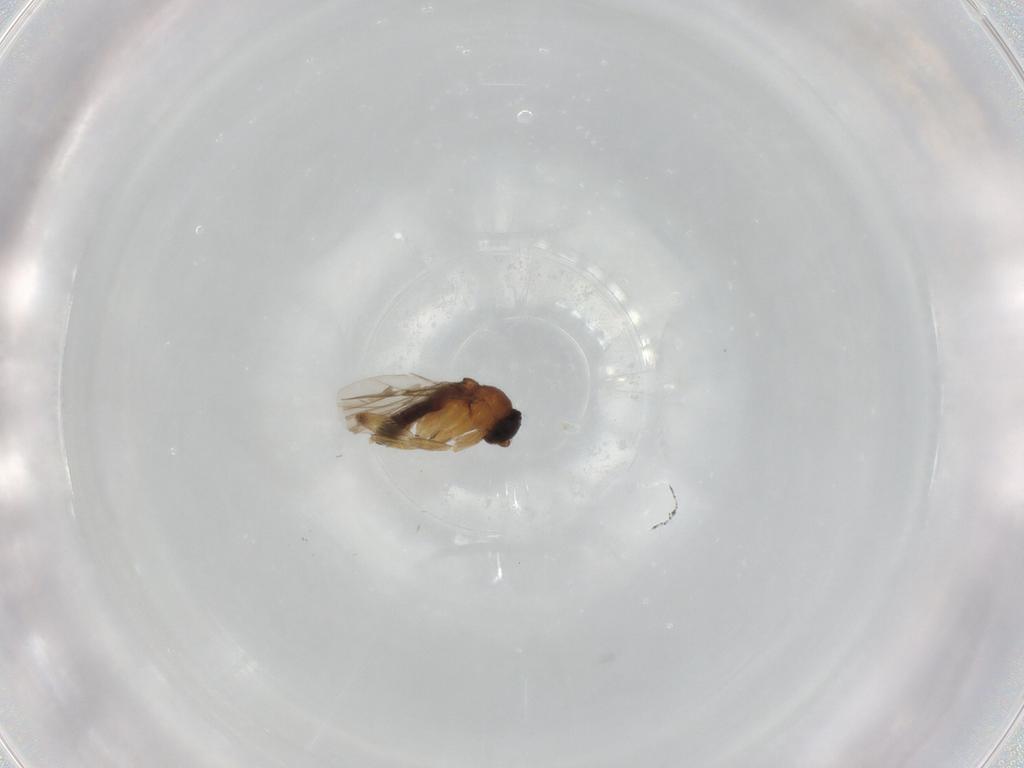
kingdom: Animalia
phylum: Arthropoda
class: Insecta
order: Diptera
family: Phoridae
